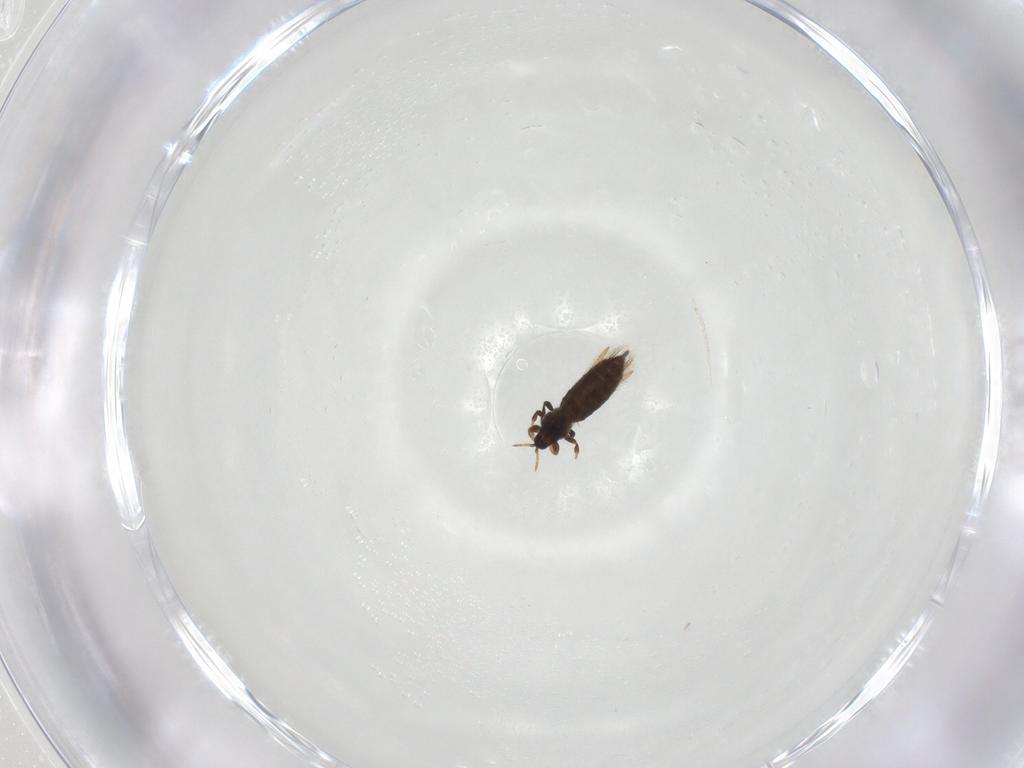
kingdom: Animalia
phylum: Arthropoda
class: Insecta
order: Thysanoptera
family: Thripidae
